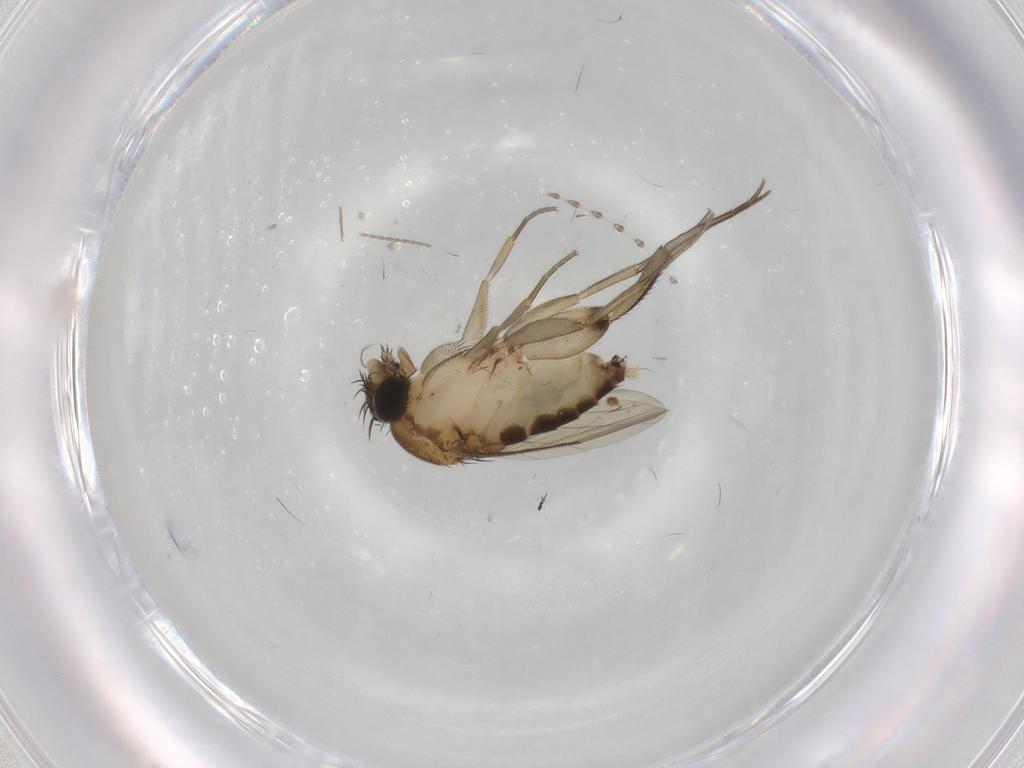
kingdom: Animalia
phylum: Arthropoda
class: Insecta
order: Diptera
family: Phoridae
